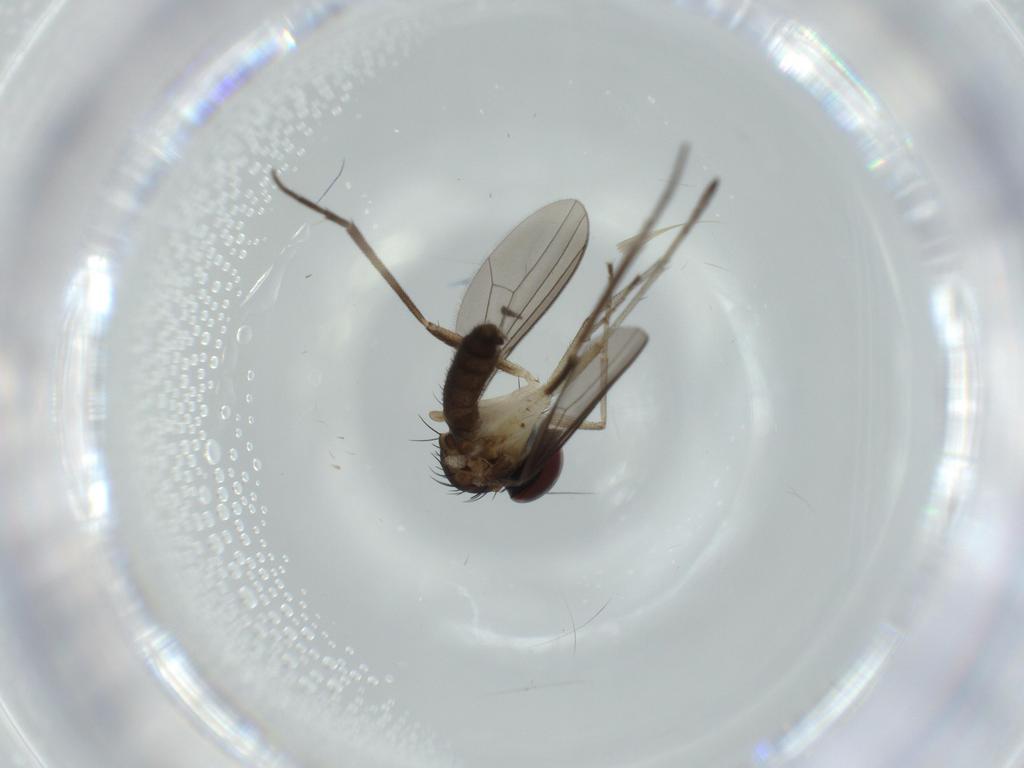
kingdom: Animalia
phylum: Arthropoda
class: Insecta
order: Diptera
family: Dolichopodidae
